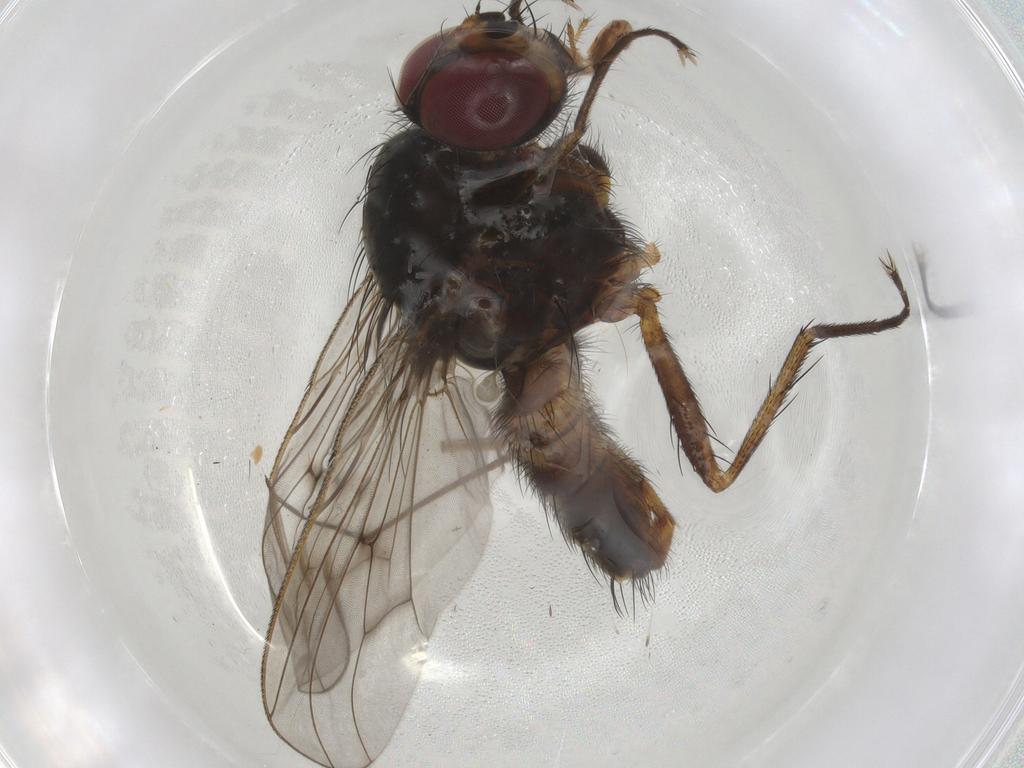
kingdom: Animalia
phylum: Arthropoda
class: Insecta
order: Diptera
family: Anthomyiidae
